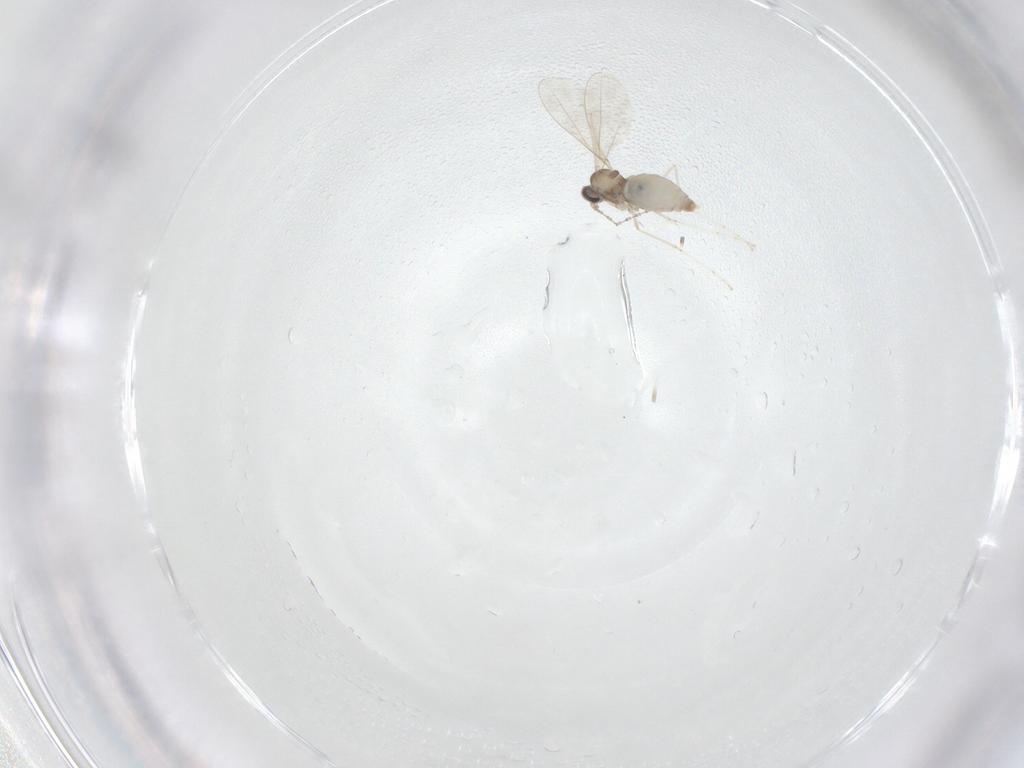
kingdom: Animalia
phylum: Arthropoda
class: Insecta
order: Diptera
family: Cecidomyiidae
